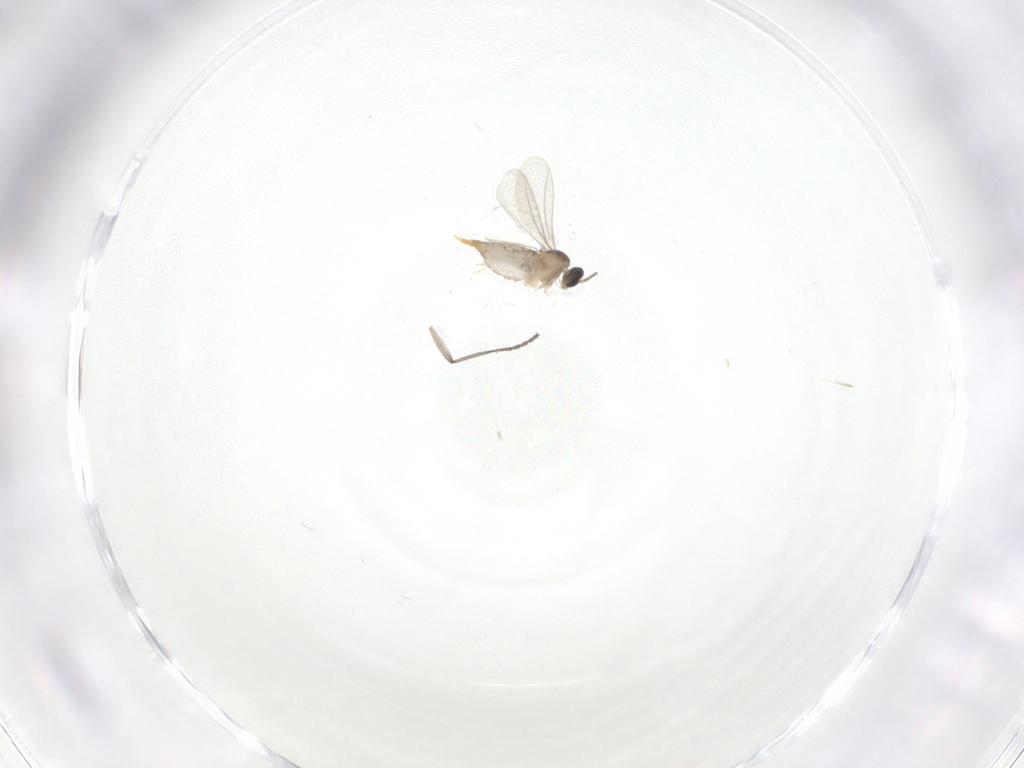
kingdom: Animalia
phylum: Arthropoda
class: Insecta
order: Diptera
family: Sciaridae
